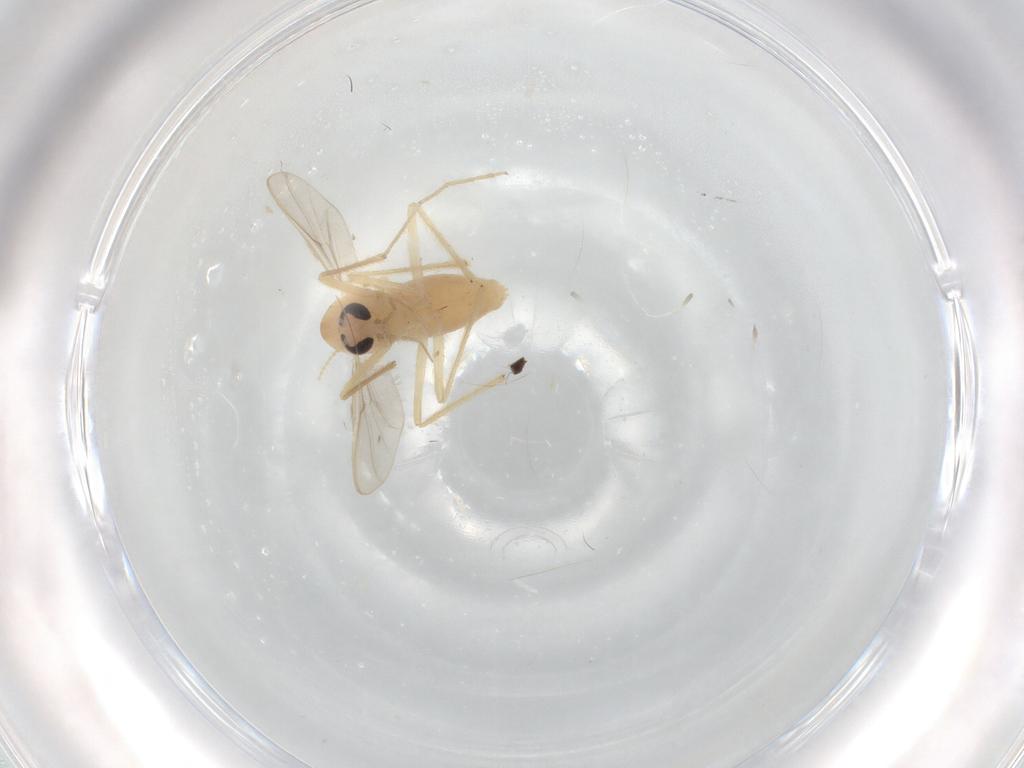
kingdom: Animalia
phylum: Arthropoda
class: Insecta
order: Diptera
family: Chironomidae
